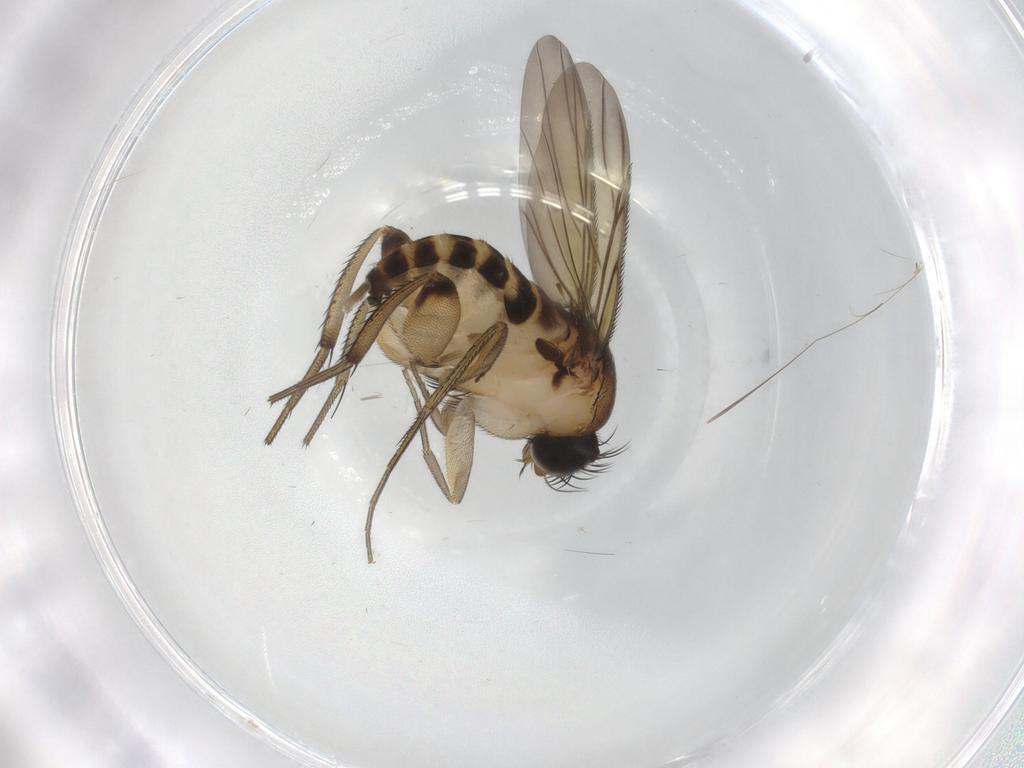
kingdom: Animalia
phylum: Arthropoda
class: Insecta
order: Diptera
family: Phoridae
